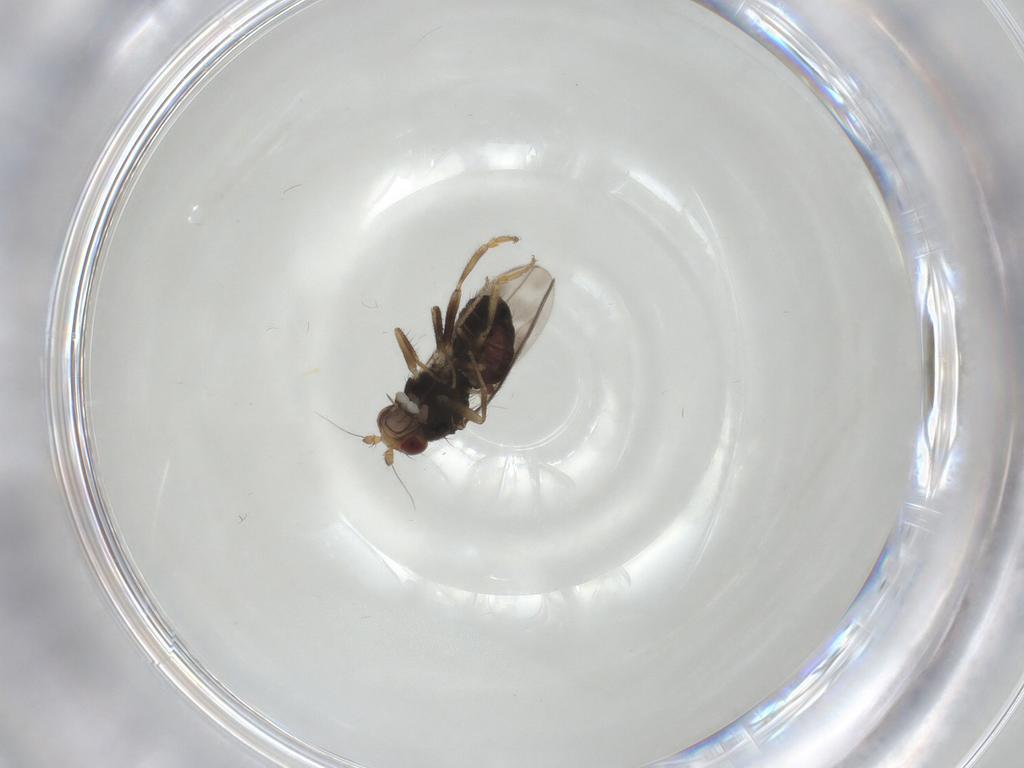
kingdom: Animalia
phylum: Arthropoda
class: Insecta
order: Diptera
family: Sphaeroceridae
